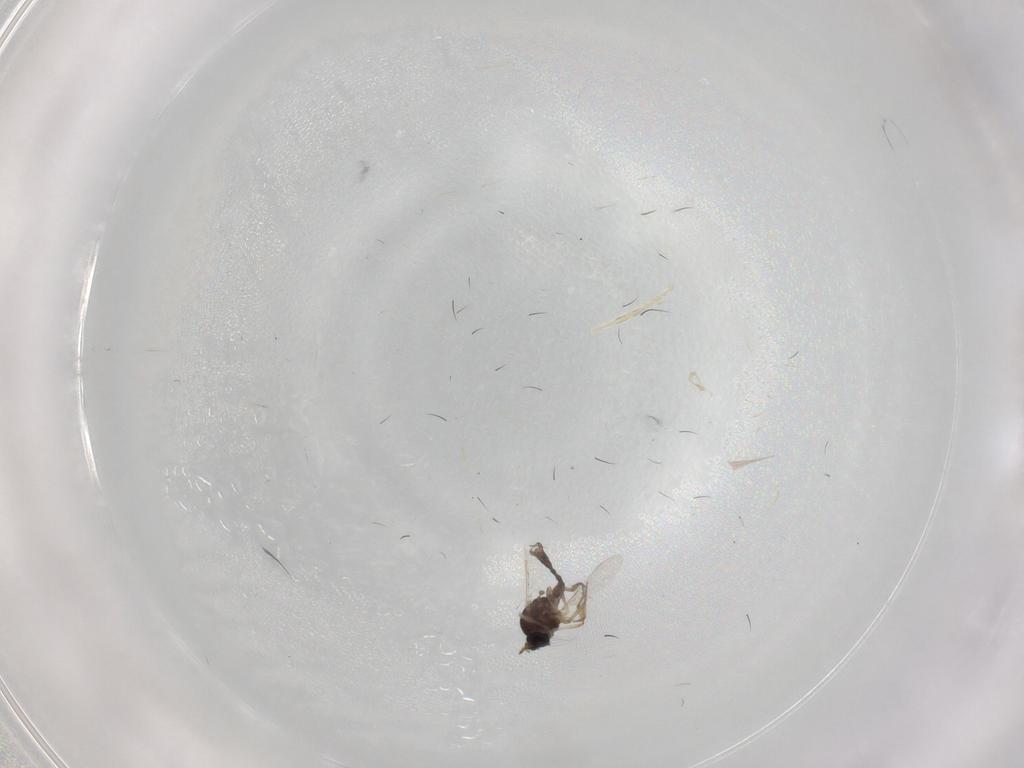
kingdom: Animalia
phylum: Arthropoda
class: Insecta
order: Diptera
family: Ceratopogonidae
